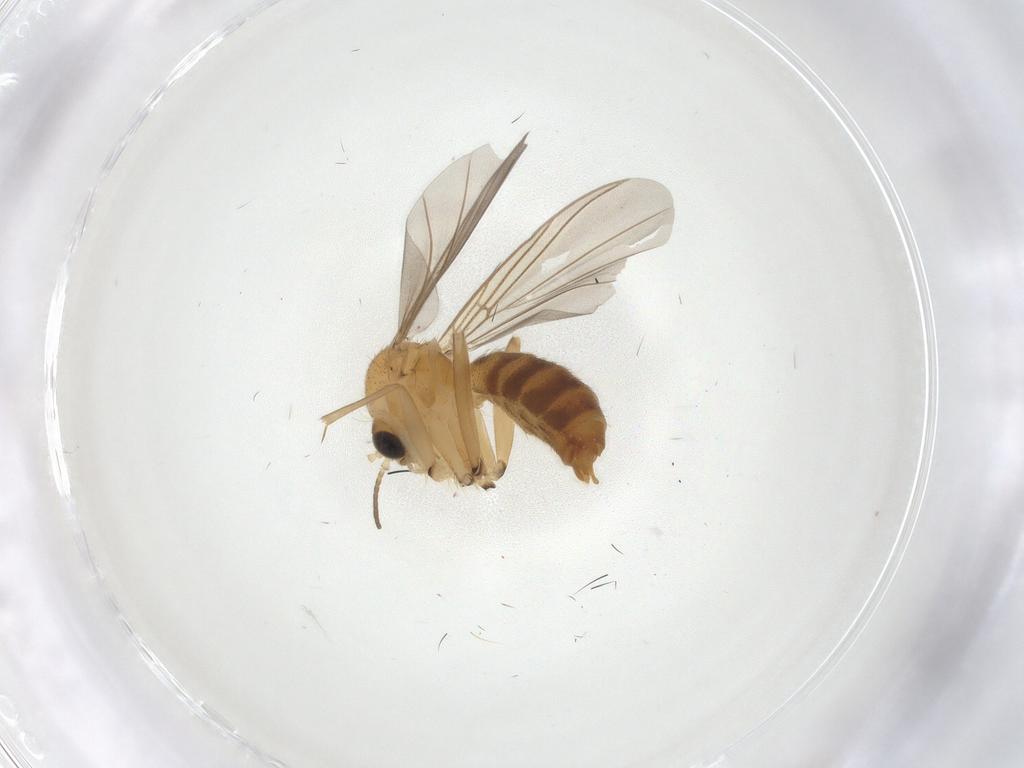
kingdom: Animalia
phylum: Arthropoda
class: Insecta
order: Diptera
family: Mycetophilidae
